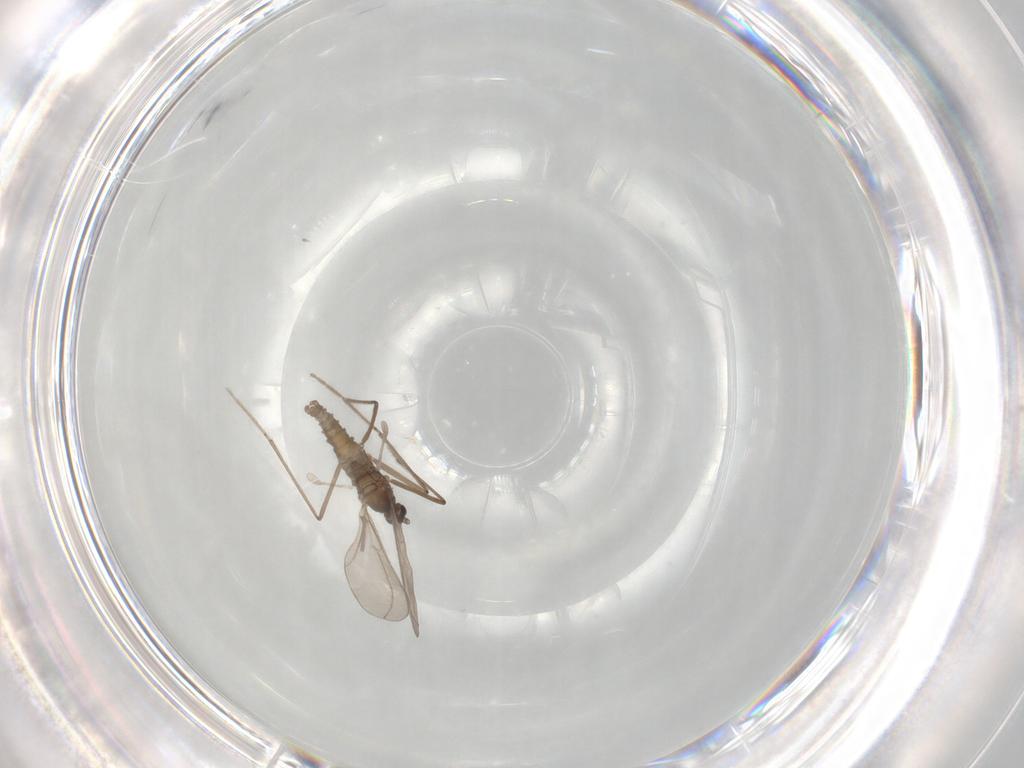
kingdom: Animalia
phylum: Arthropoda
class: Insecta
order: Diptera
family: Cecidomyiidae
